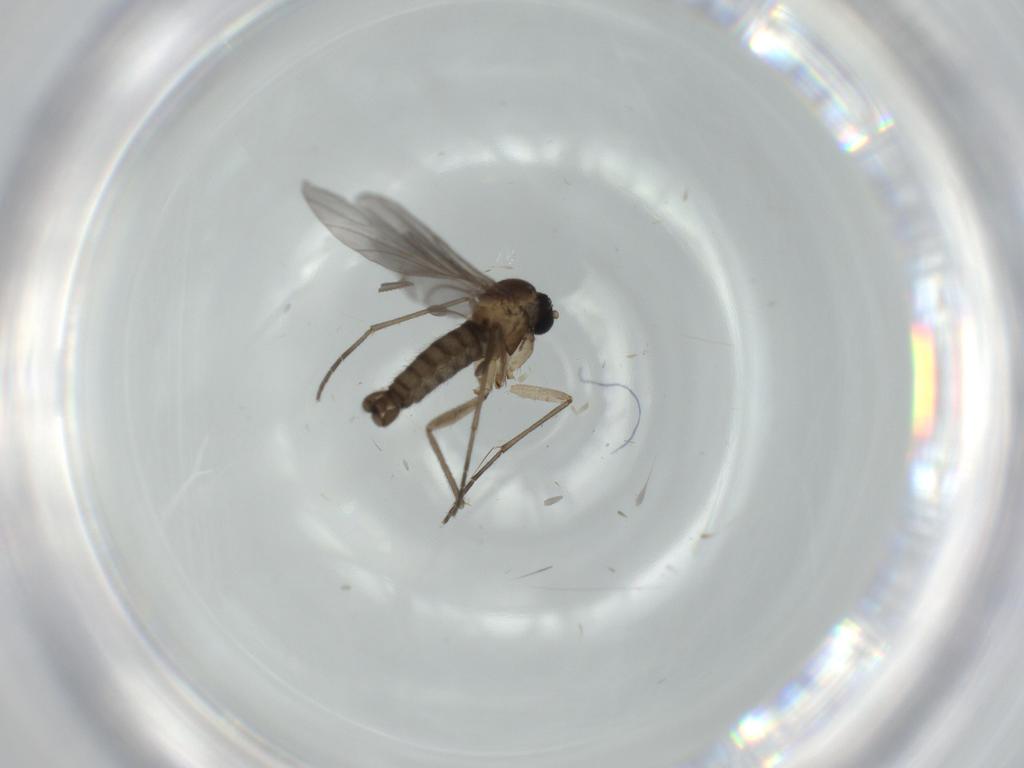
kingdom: Animalia
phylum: Arthropoda
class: Insecta
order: Diptera
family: Sciaridae
